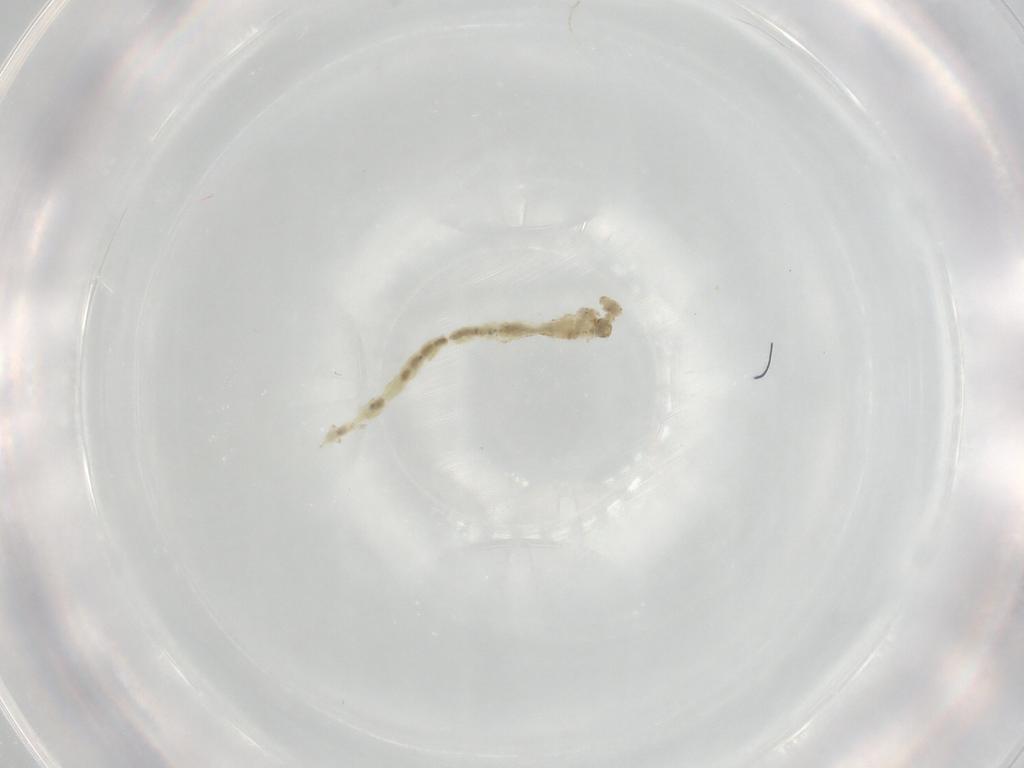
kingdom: Animalia
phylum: Arthropoda
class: Insecta
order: Diptera
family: Chironomidae
